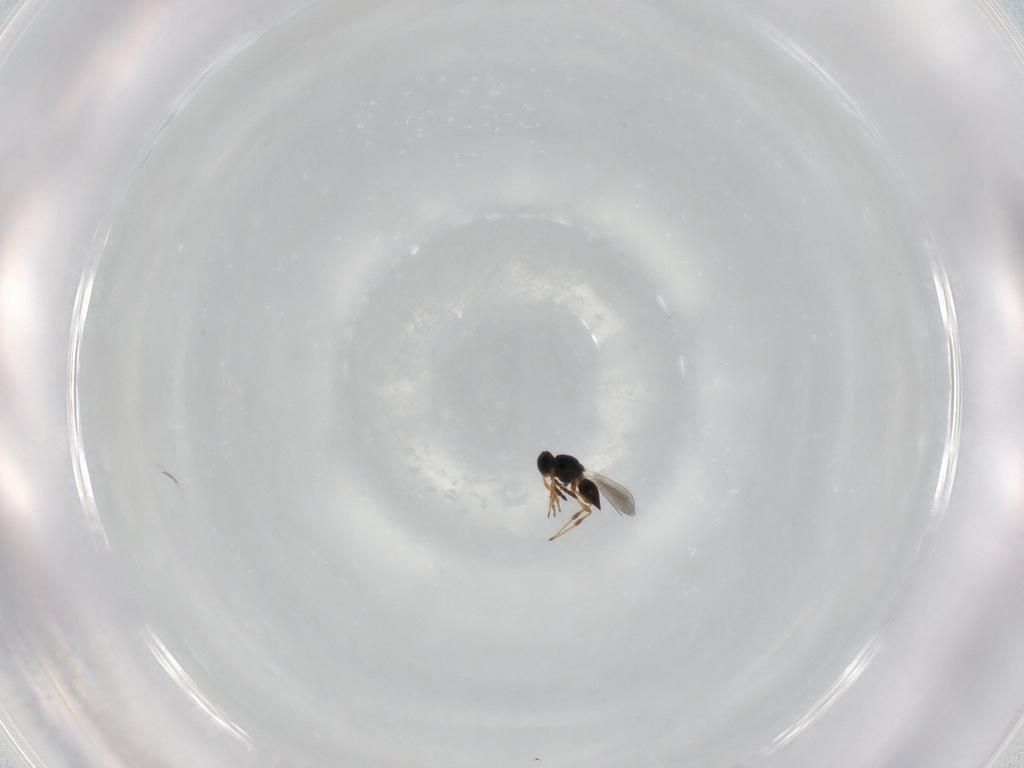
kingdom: Animalia
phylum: Arthropoda
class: Insecta
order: Hymenoptera
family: Platygastridae
